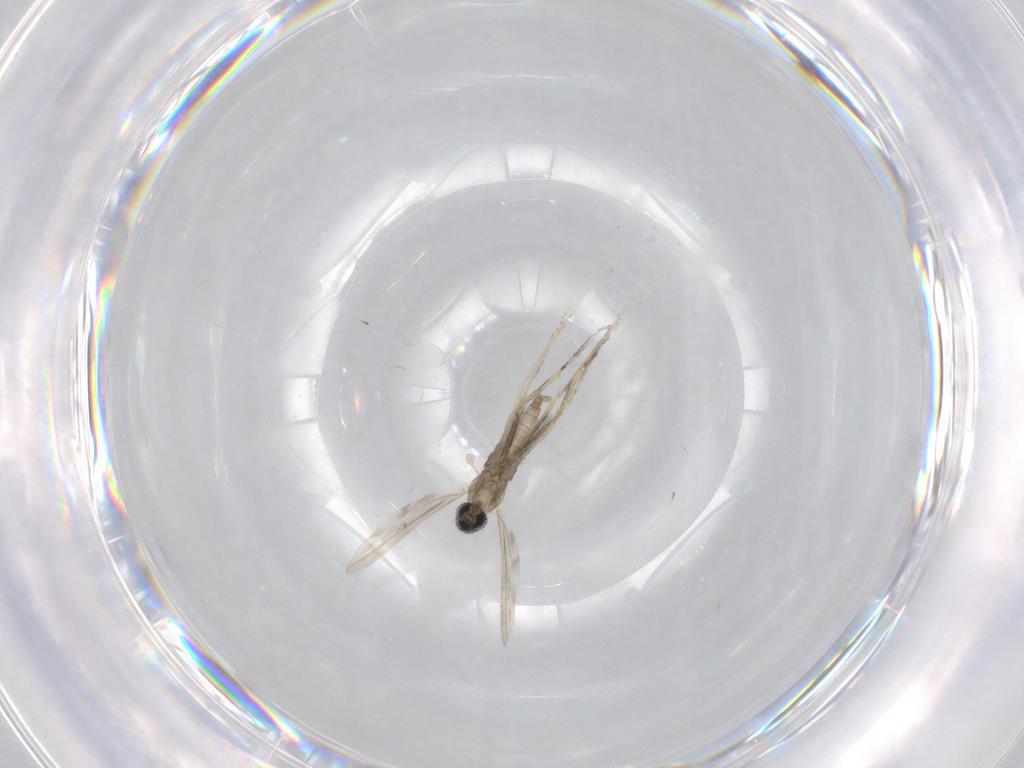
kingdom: Animalia
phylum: Arthropoda
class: Insecta
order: Diptera
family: Cecidomyiidae
